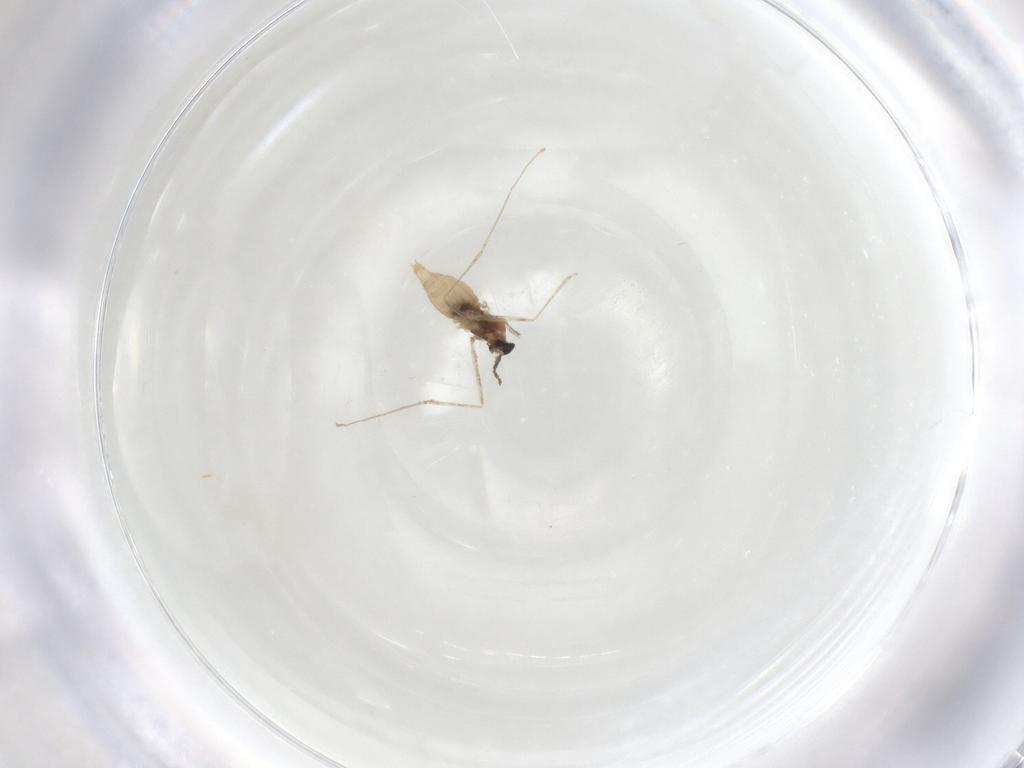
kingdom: Animalia
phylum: Arthropoda
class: Insecta
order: Diptera
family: Cecidomyiidae
